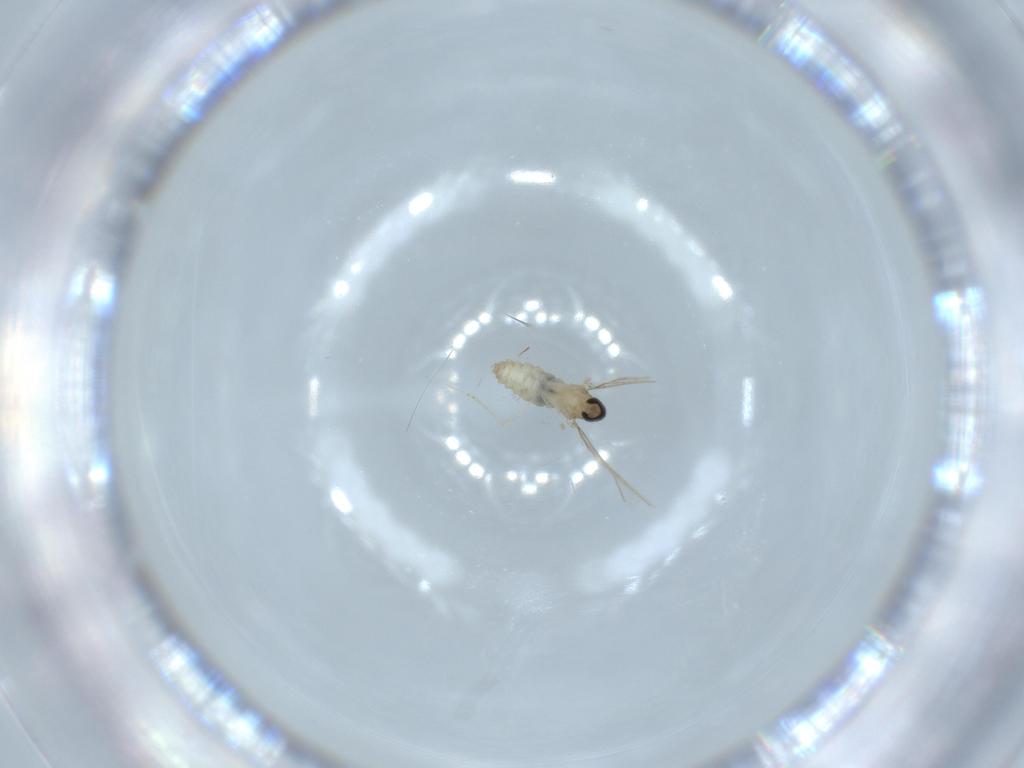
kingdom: Animalia
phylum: Arthropoda
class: Insecta
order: Diptera
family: Cecidomyiidae
